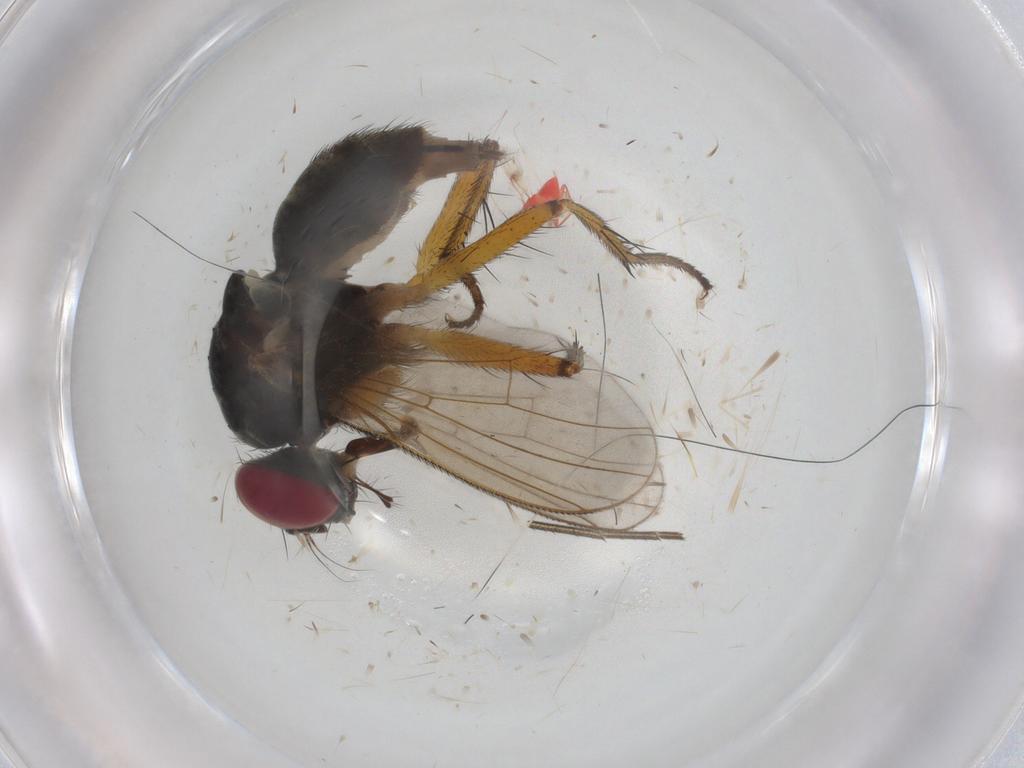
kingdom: Animalia
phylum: Arthropoda
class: Insecta
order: Diptera
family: Muscidae
